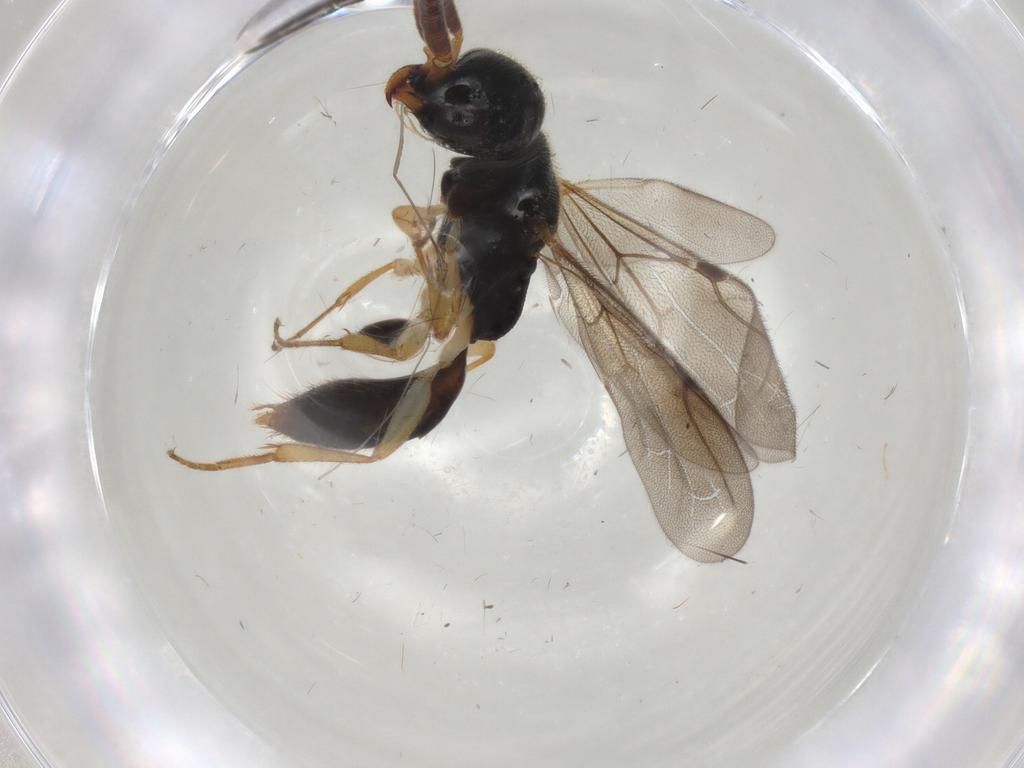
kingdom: Animalia
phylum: Arthropoda
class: Insecta
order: Hymenoptera
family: Bethylidae
